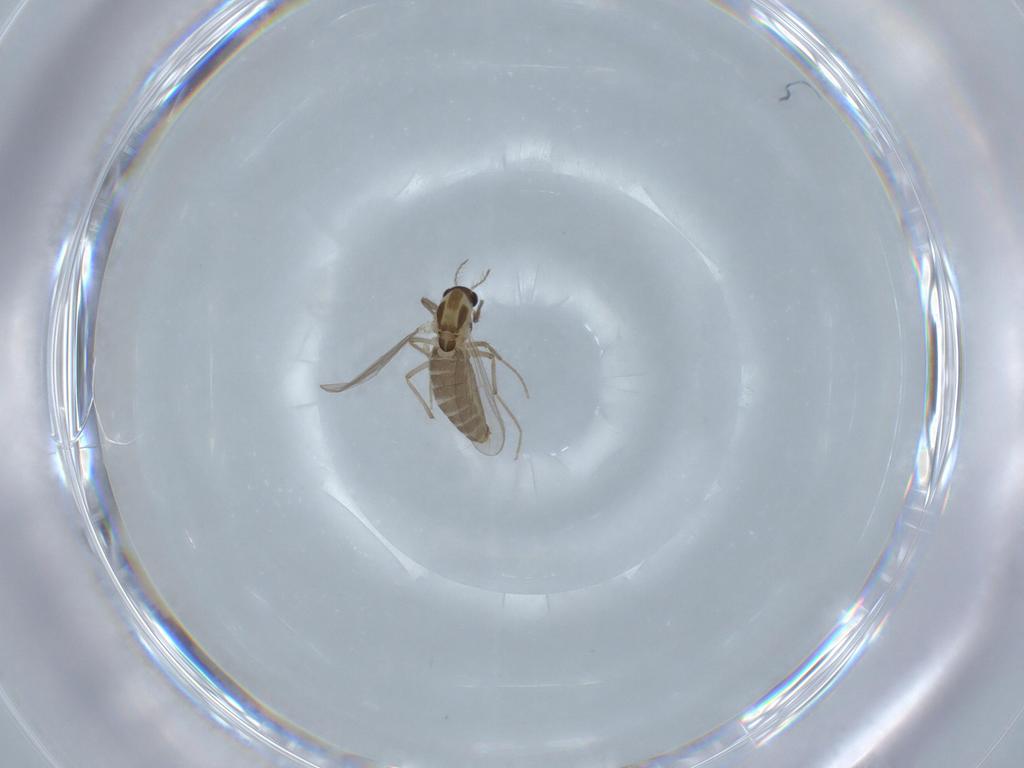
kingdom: Animalia
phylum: Arthropoda
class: Insecta
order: Diptera
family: Chironomidae
